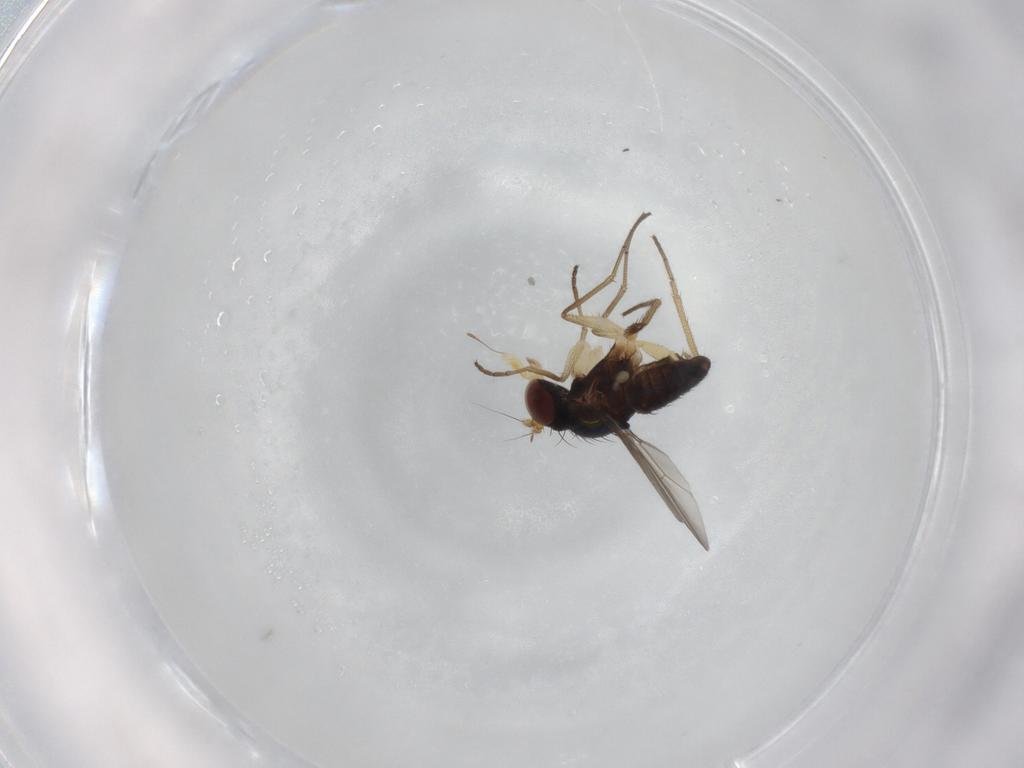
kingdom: Animalia
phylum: Arthropoda
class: Insecta
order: Diptera
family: Dolichopodidae
